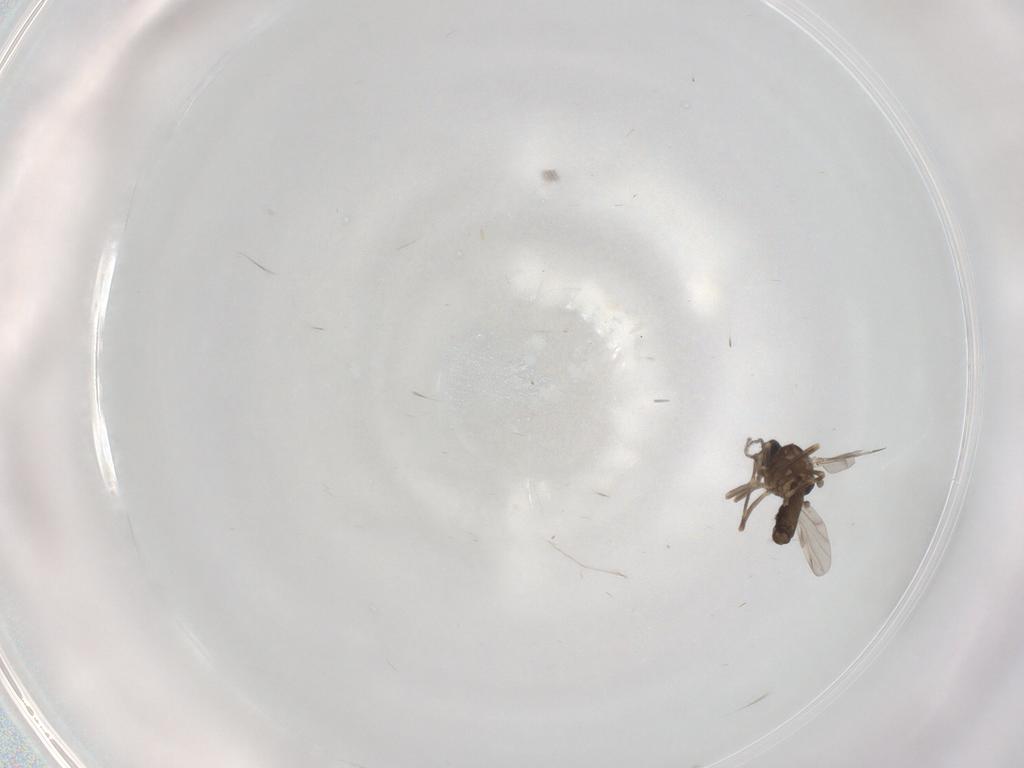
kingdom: Animalia
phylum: Arthropoda
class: Insecta
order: Diptera
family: Ceratopogonidae
